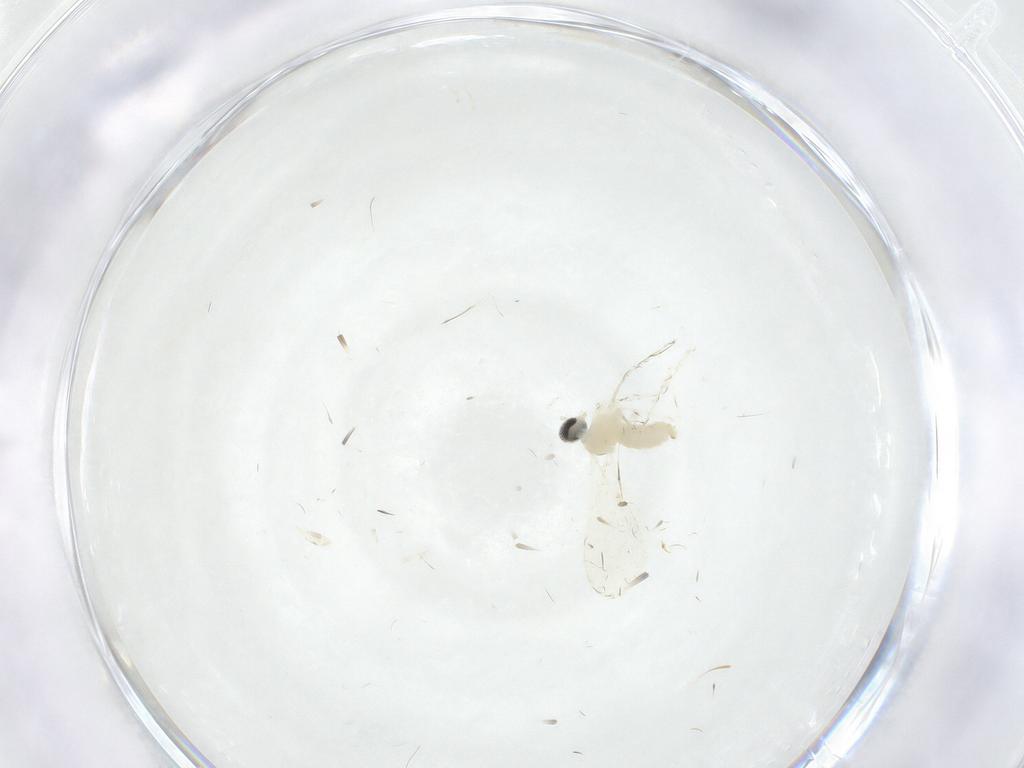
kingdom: Animalia
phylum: Arthropoda
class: Insecta
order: Diptera
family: Cecidomyiidae
